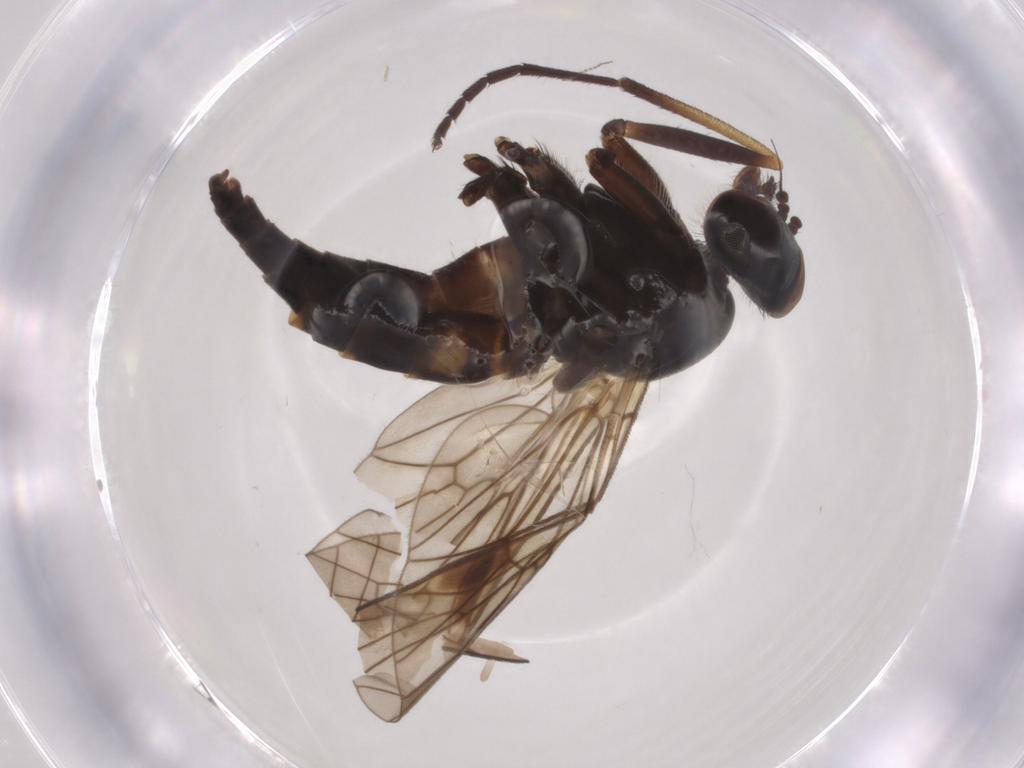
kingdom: Animalia
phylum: Arthropoda
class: Insecta
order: Diptera
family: Rhagionidae
